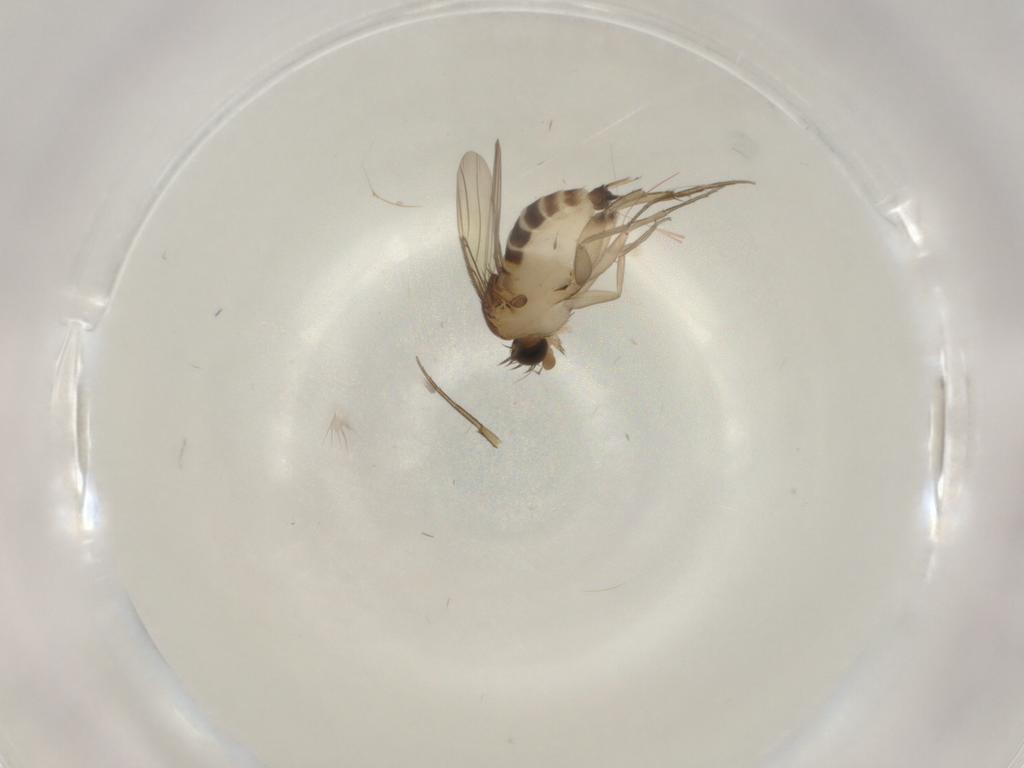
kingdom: Animalia
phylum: Arthropoda
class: Insecta
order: Diptera
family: Phoridae
